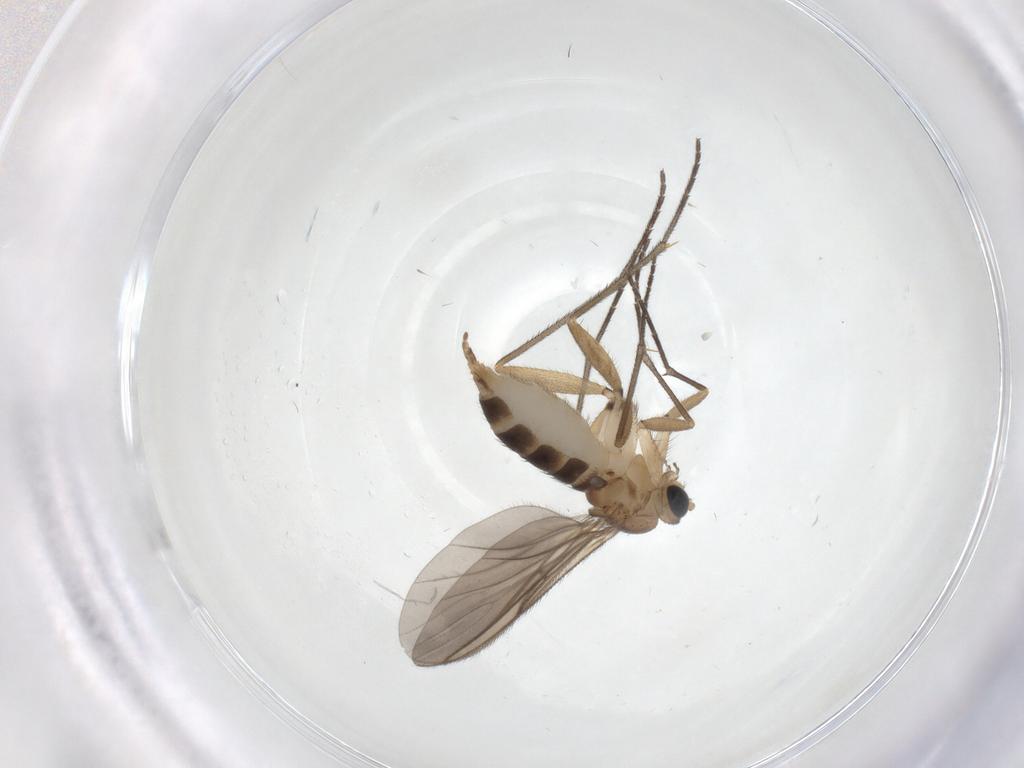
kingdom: Animalia
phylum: Arthropoda
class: Insecta
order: Diptera
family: Sciaridae
